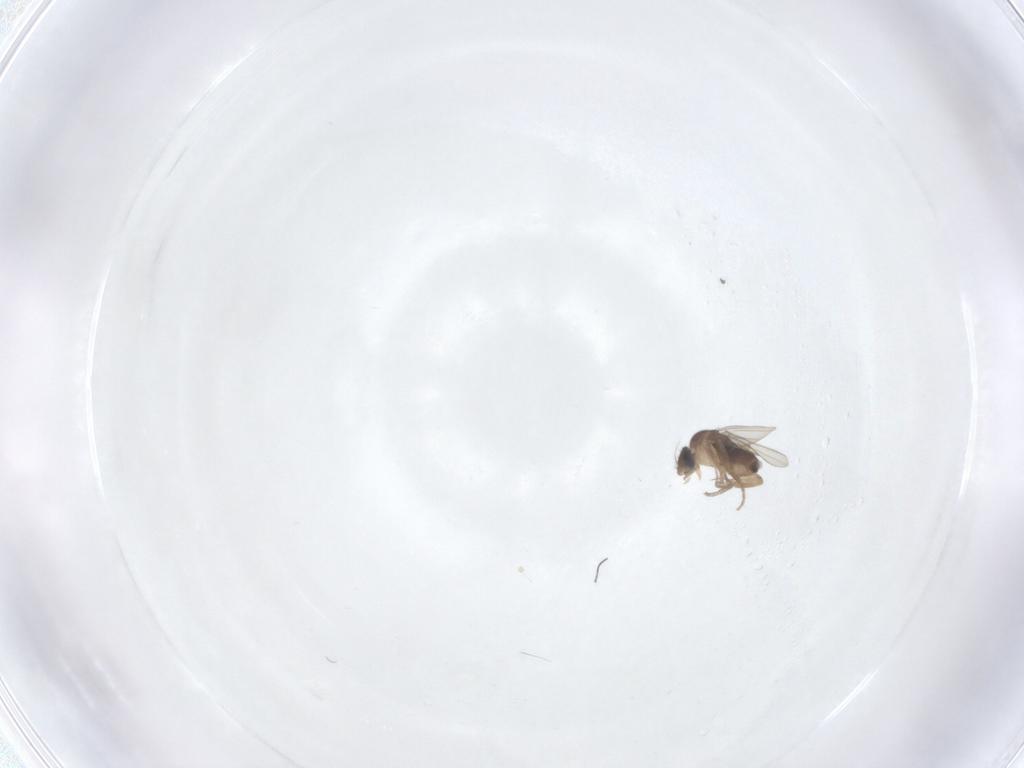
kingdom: Animalia
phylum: Arthropoda
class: Insecta
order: Diptera
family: Phoridae
